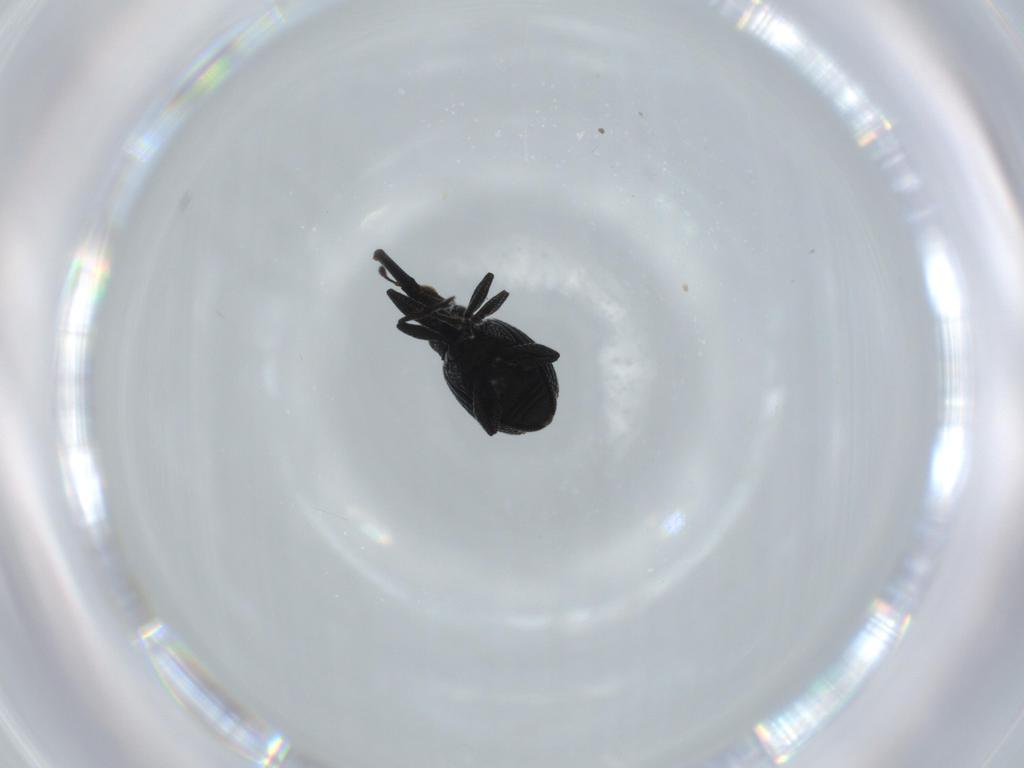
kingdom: Animalia
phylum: Arthropoda
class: Insecta
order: Coleoptera
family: Brentidae
